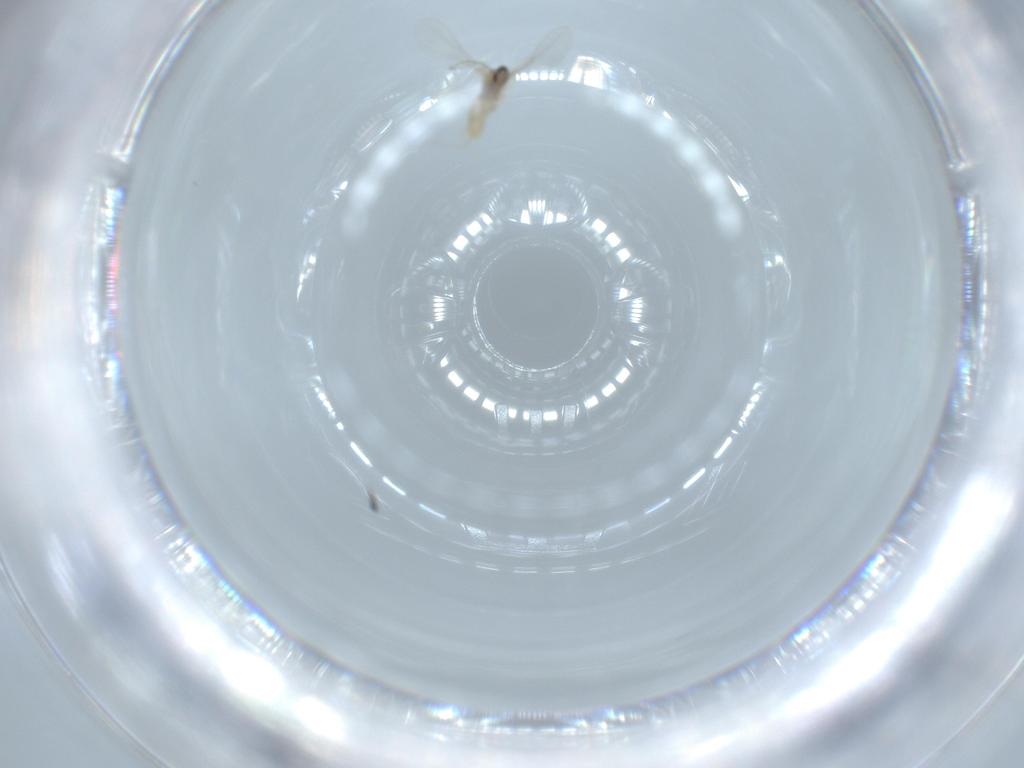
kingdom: Animalia
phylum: Arthropoda
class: Insecta
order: Diptera
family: Cecidomyiidae
